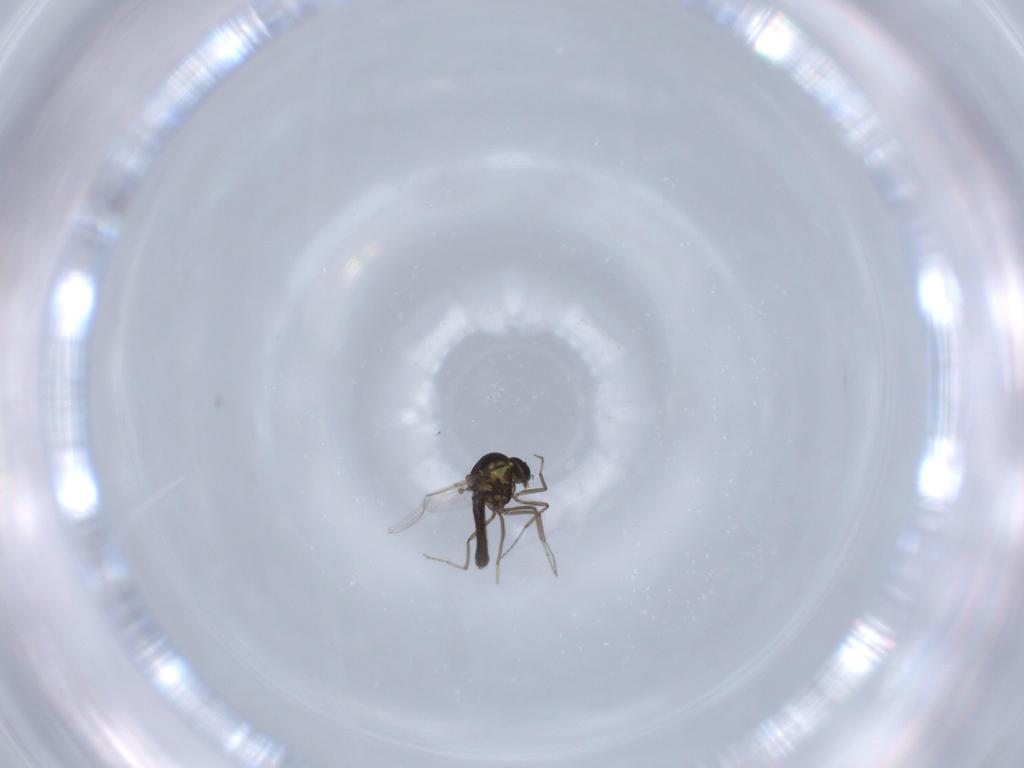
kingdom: Animalia
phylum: Arthropoda
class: Insecta
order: Diptera
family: Ceratopogonidae
